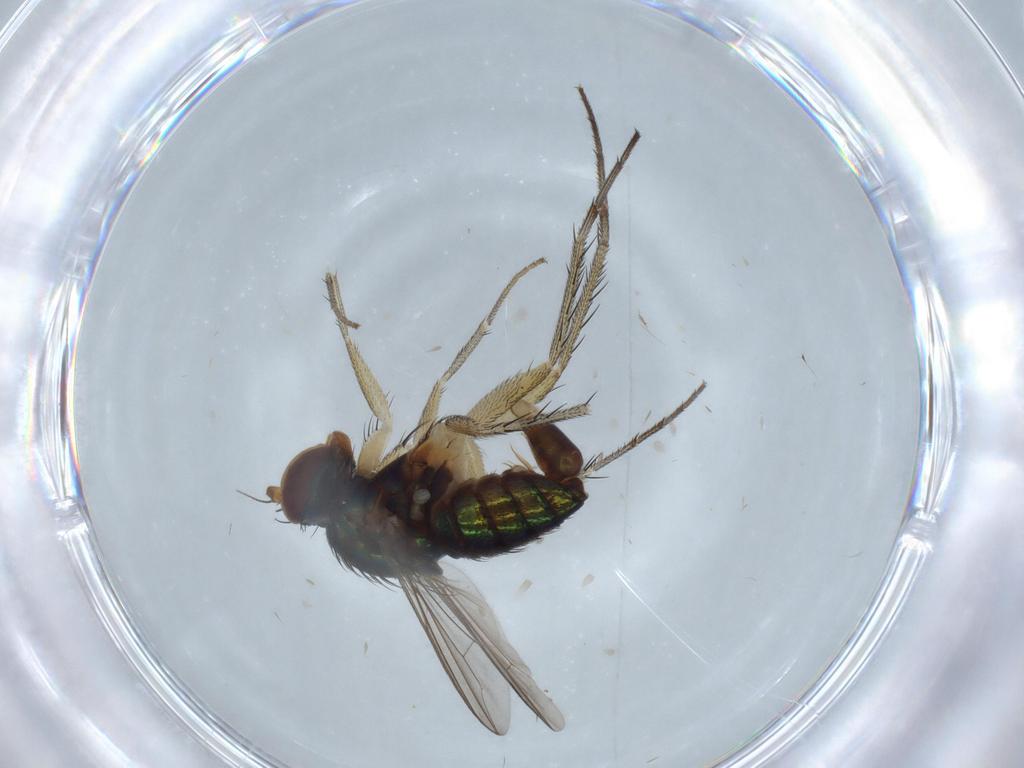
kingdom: Animalia
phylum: Arthropoda
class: Insecta
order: Diptera
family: Dolichopodidae
